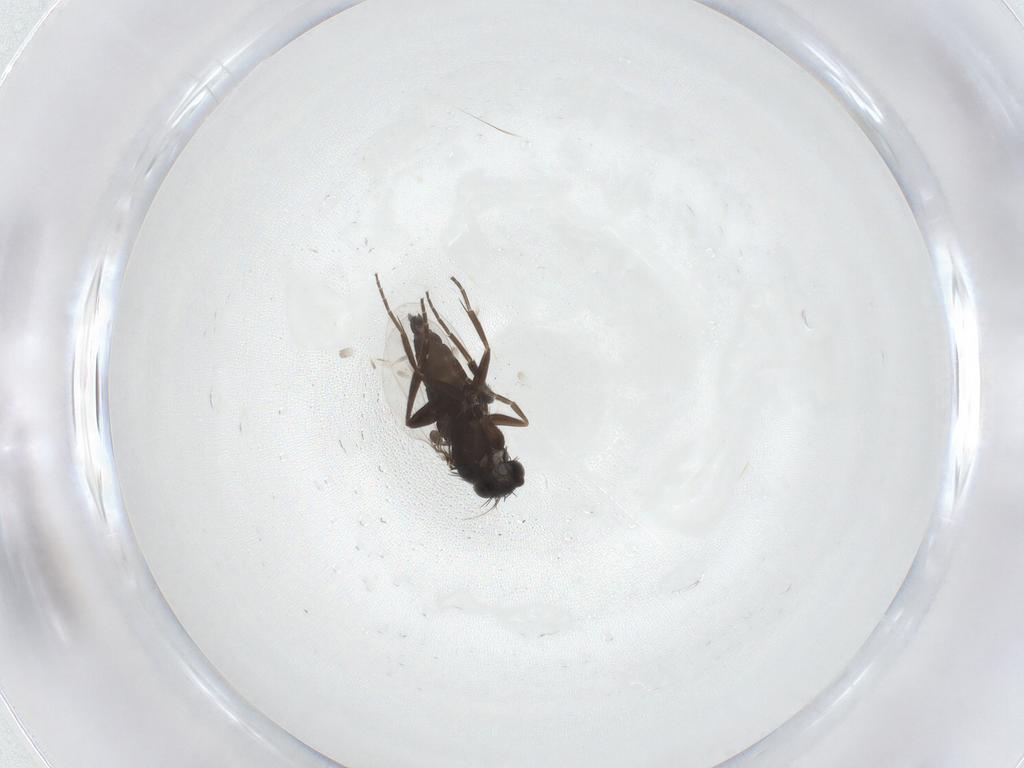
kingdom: Animalia
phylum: Arthropoda
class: Insecta
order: Diptera
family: Phoridae
